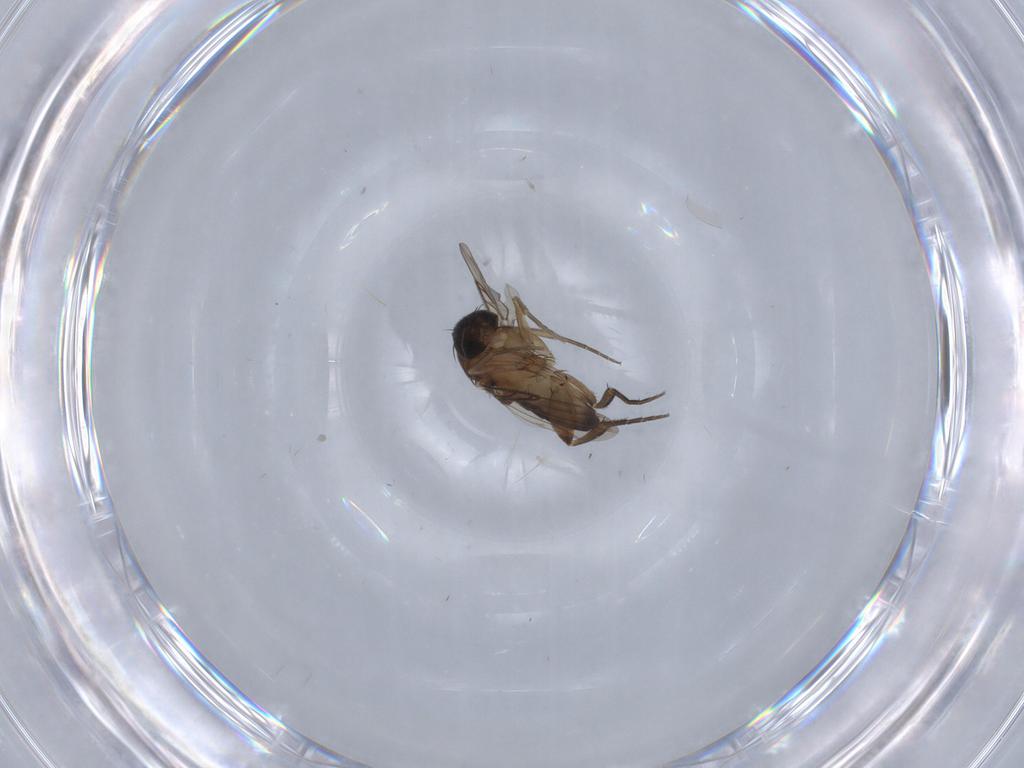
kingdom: Animalia
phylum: Arthropoda
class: Insecta
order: Diptera
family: Phoridae
